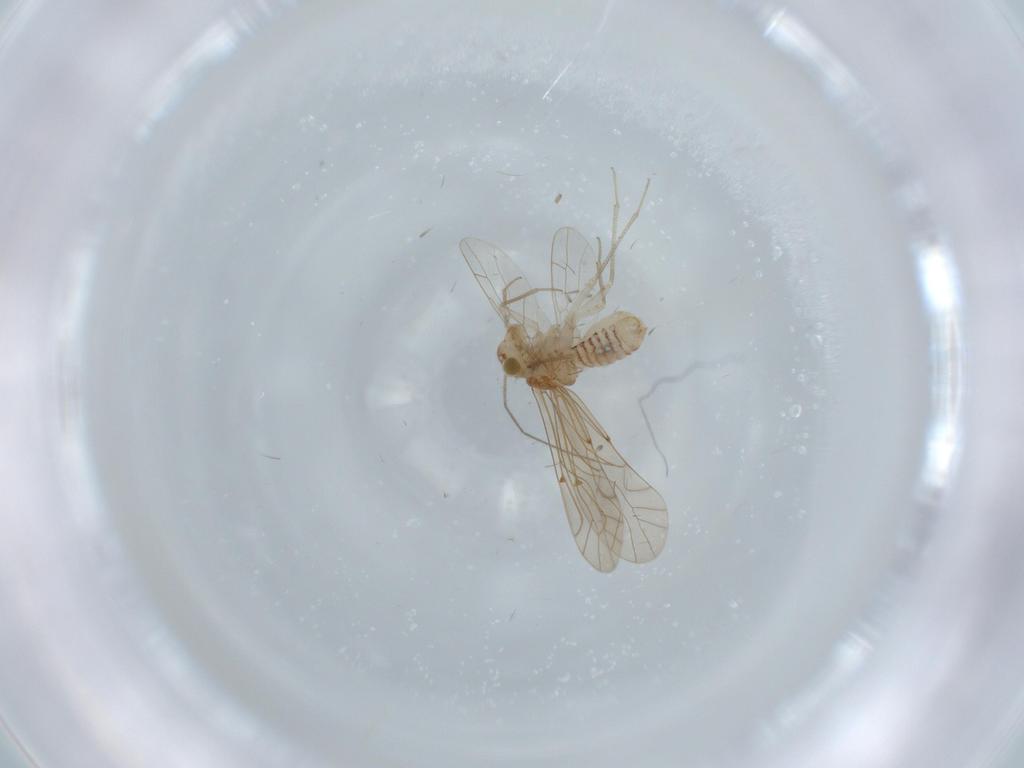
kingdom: Animalia
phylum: Arthropoda
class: Insecta
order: Psocodea
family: Lachesillidae
